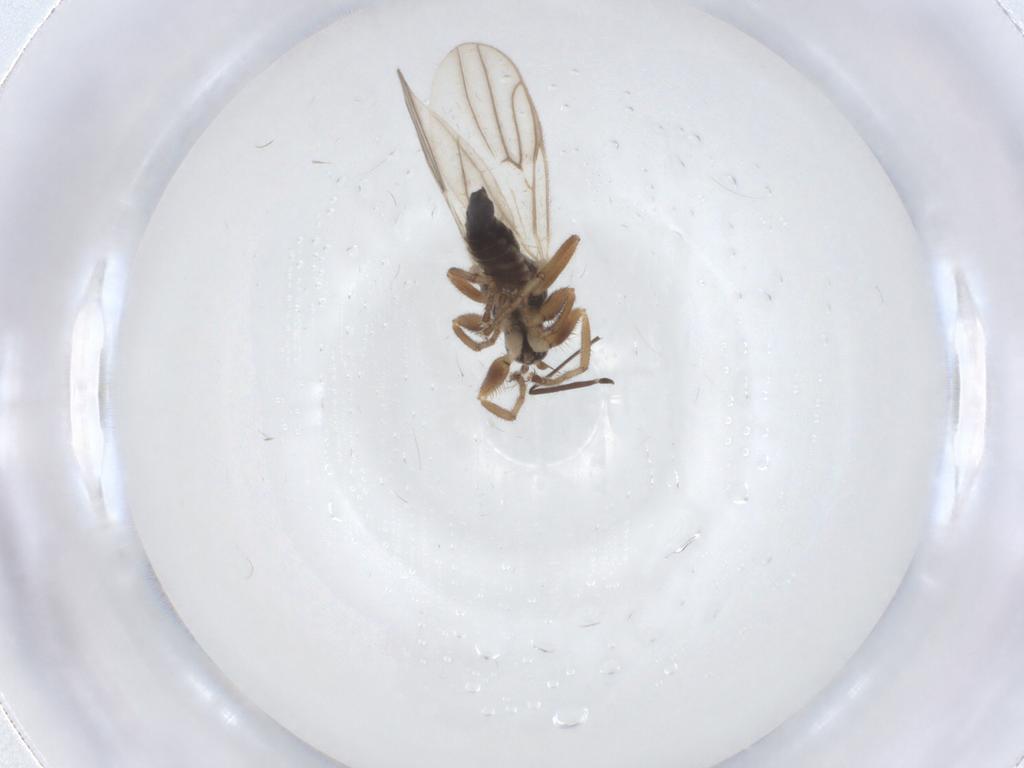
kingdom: Animalia
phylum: Arthropoda
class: Insecta
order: Diptera
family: Hybotidae
